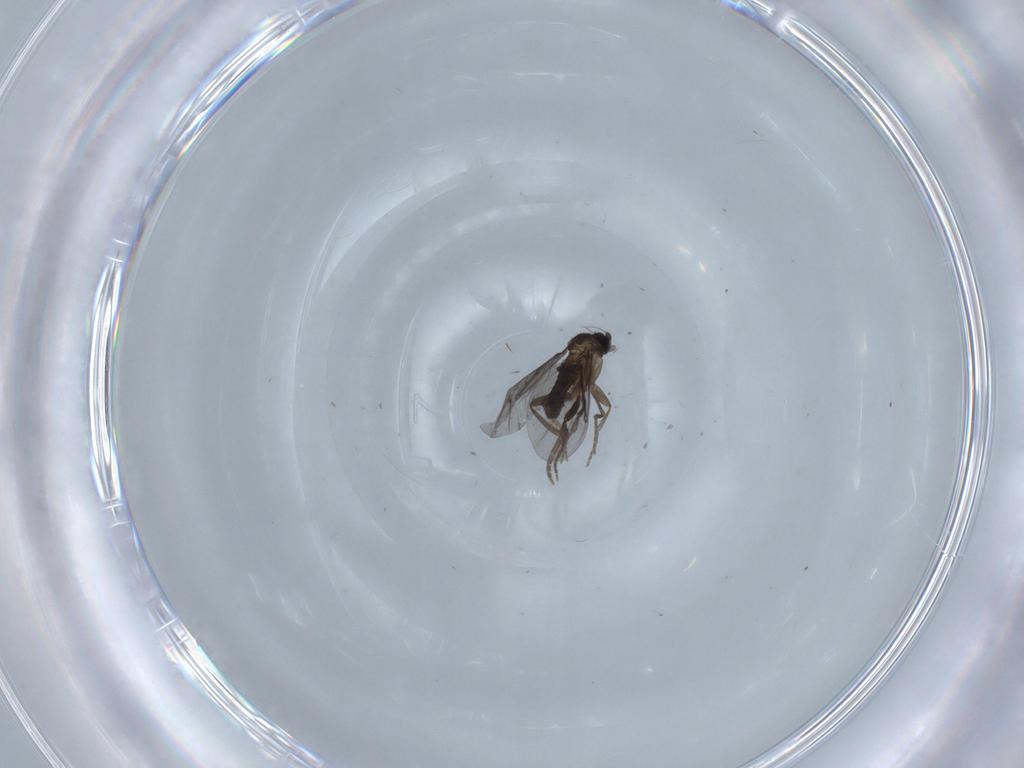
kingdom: Animalia
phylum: Arthropoda
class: Insecta
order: Diptera
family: Phoridae
